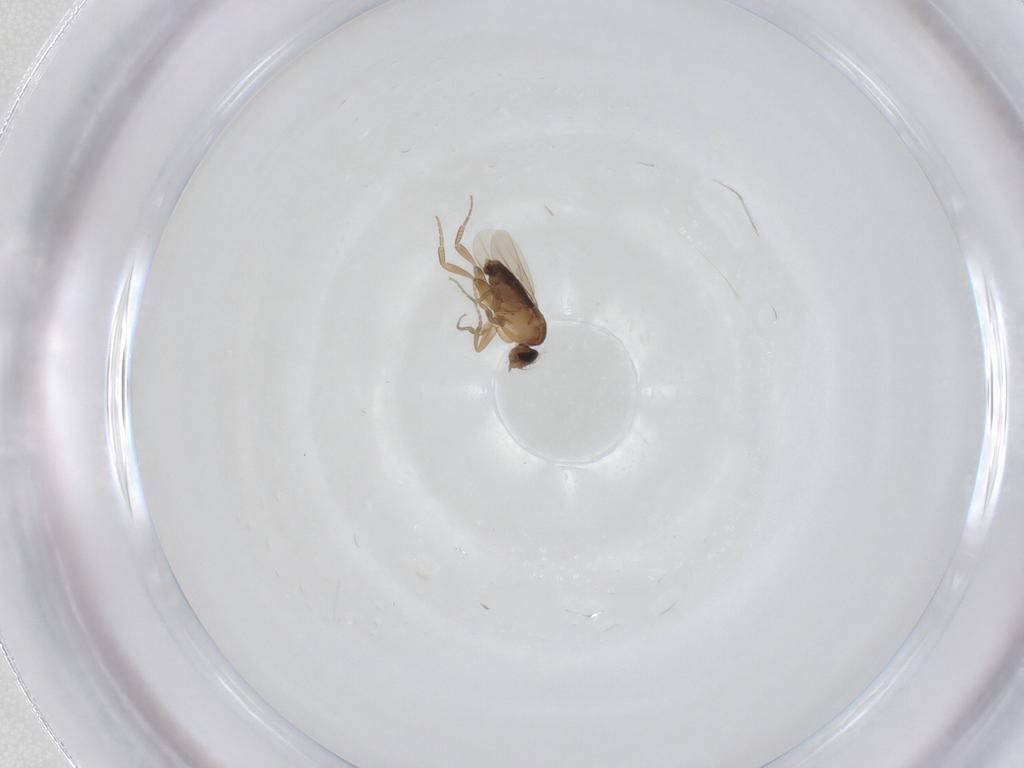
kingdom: Animalia
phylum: Arthropoda
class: Insecta
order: Diptera
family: Phoridae
